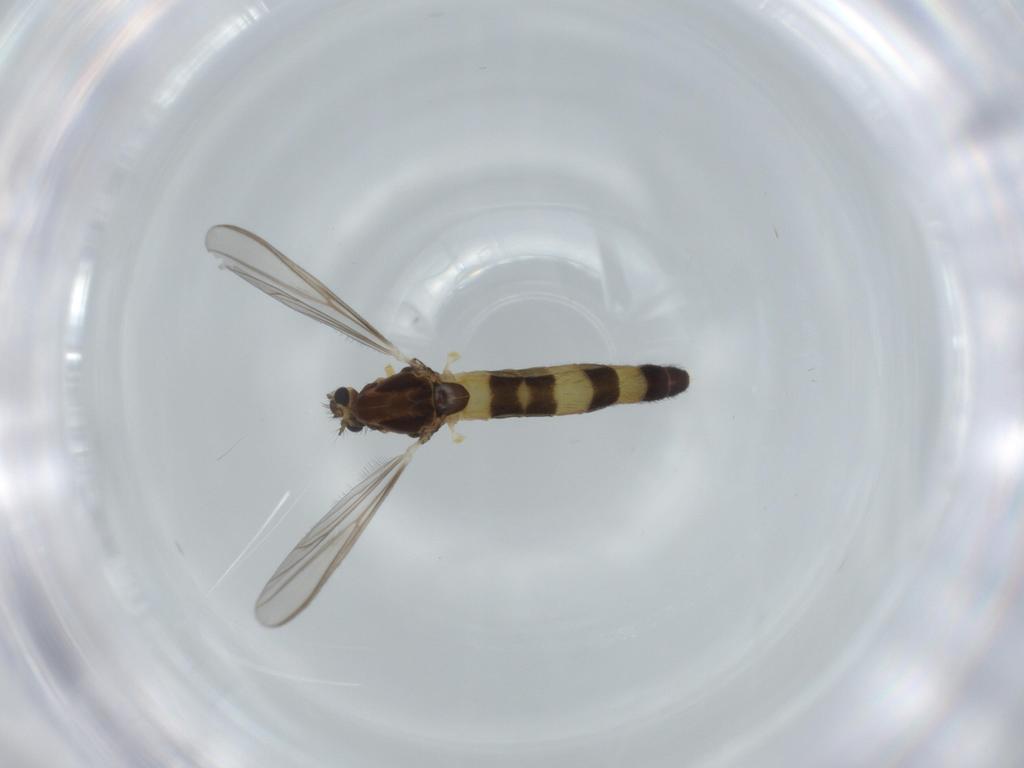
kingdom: Animalia
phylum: Arthropoda
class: Insecta
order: Diptera
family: Chironomidae
